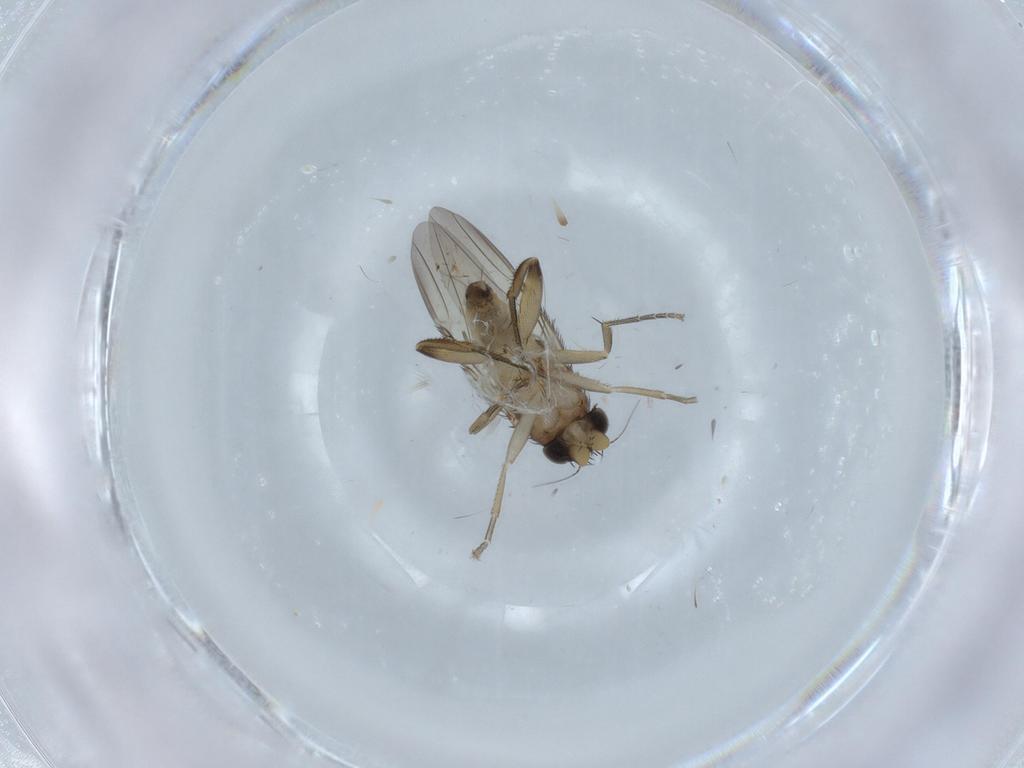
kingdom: Animalia
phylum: Arthropoda
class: Insecta
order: Diptera
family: Phoridae
